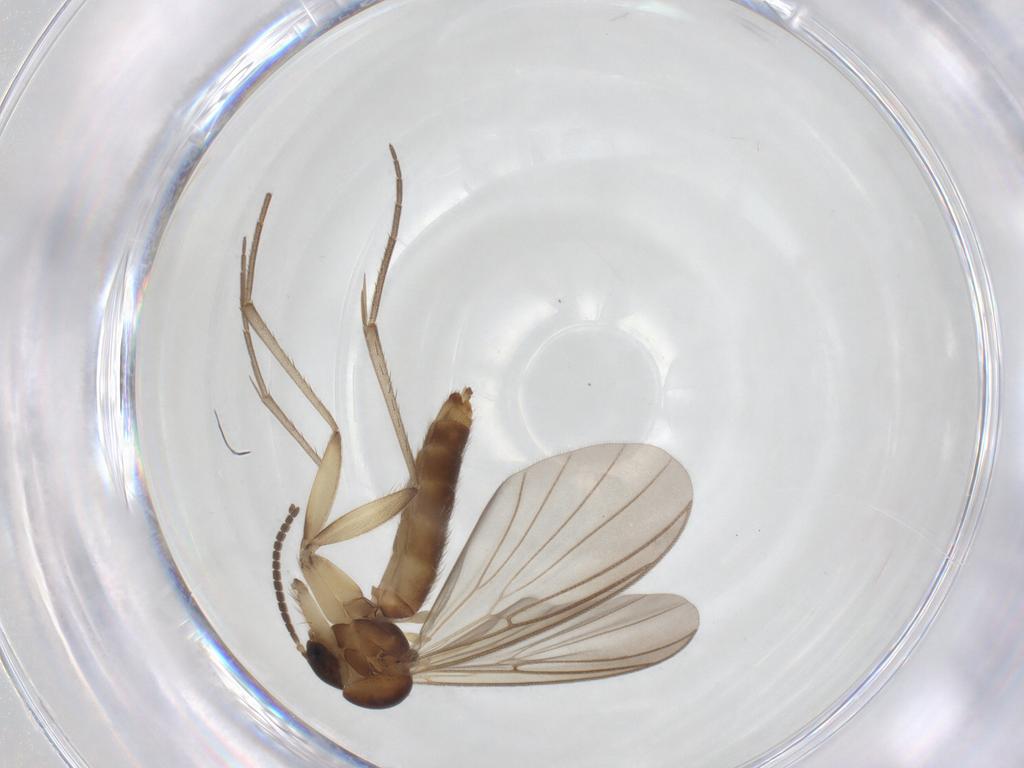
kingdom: Animalia
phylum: Arthropoda
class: Insecta
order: Diptera
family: Mycetophilidae
